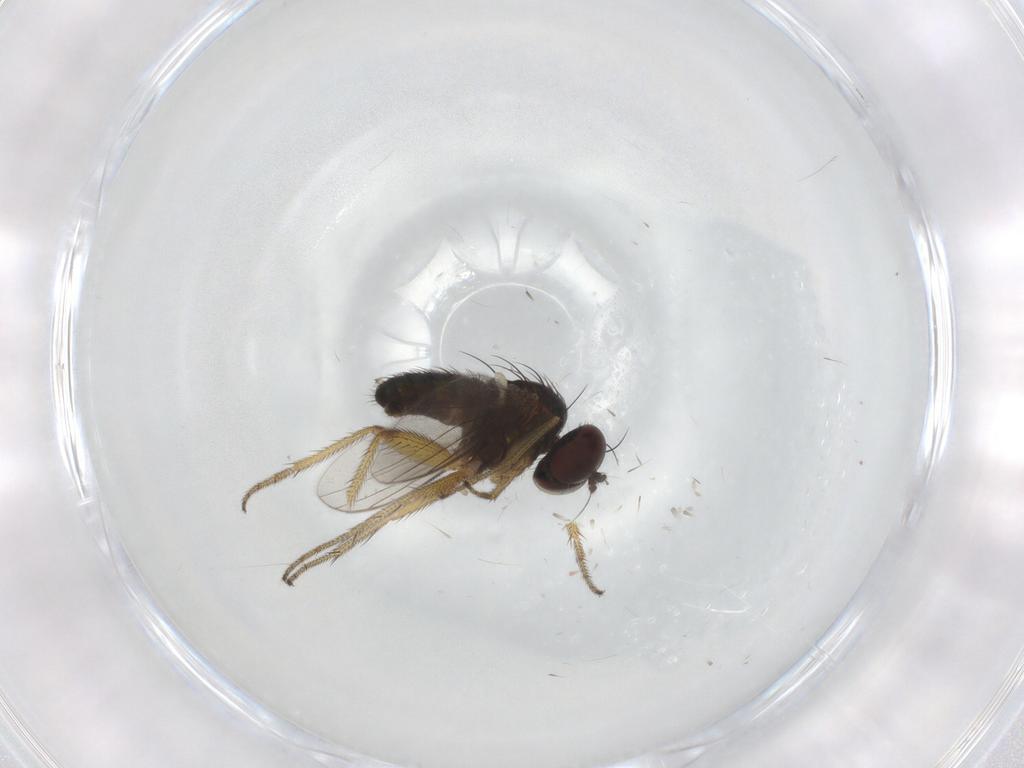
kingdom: Animalia
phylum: Arthropoda
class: Insecta
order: Diptera
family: Drosophilidae
